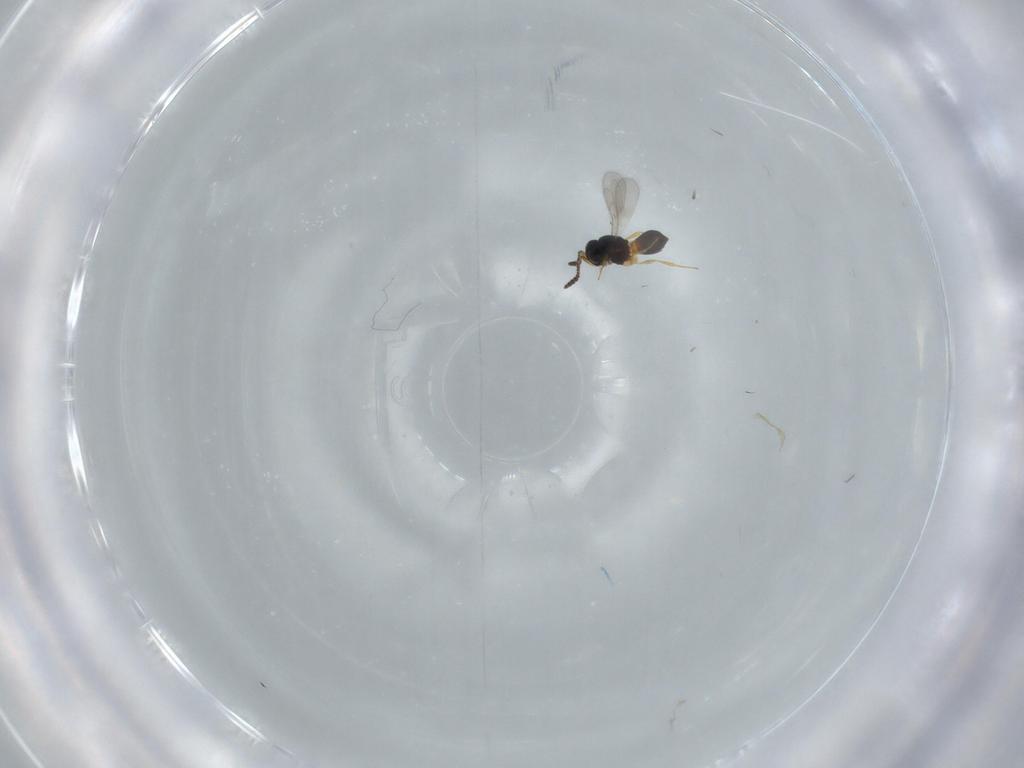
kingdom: Animalia
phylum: Arthropoda
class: Insecta
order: Hymenoptera
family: Scelionidae
